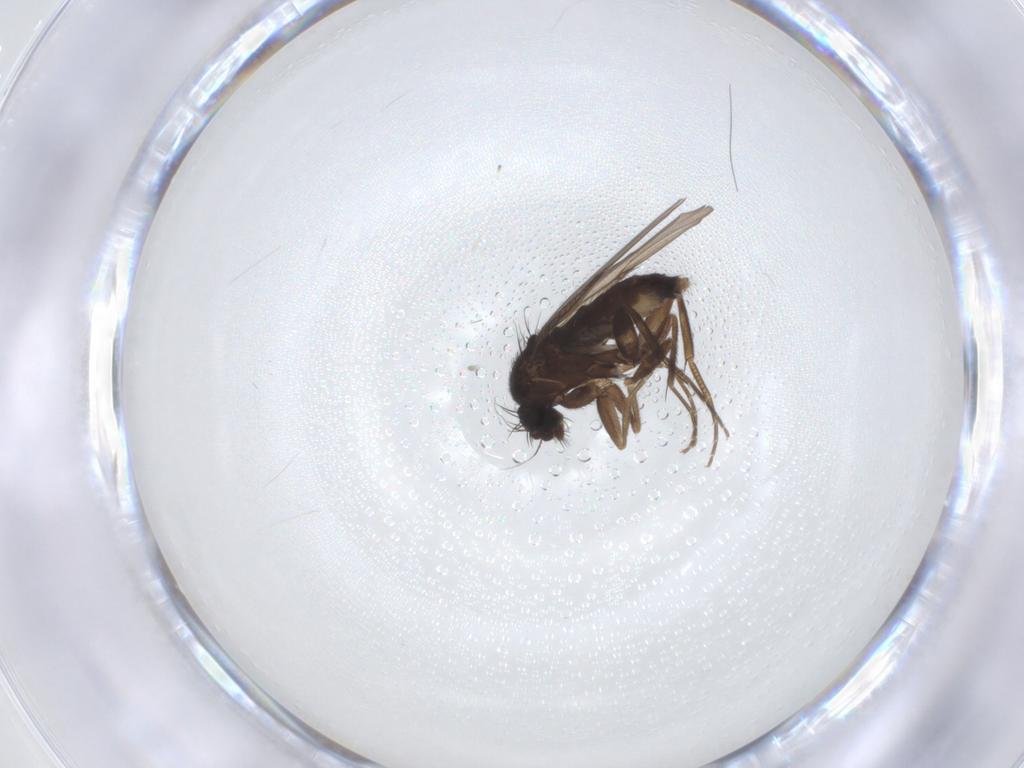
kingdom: Animalia
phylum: Arthropoda
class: Insecta
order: Diptera
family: Phoridae
